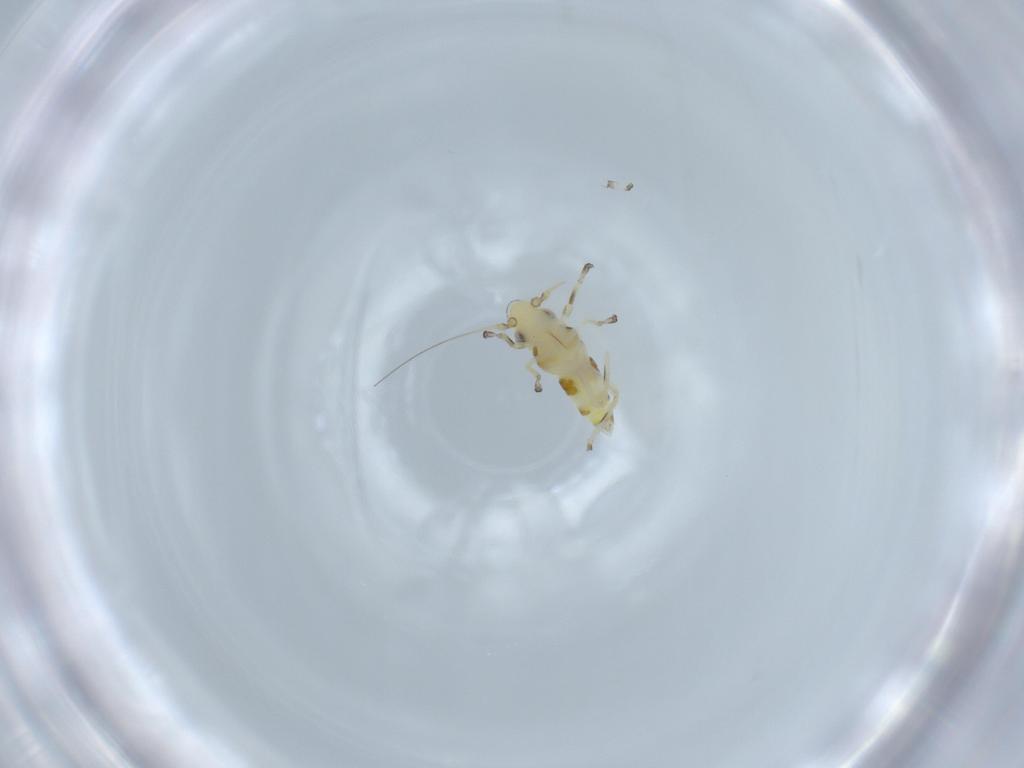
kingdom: Animalia
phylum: Arthropoda
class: Insecta
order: Hemiptera
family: Cicadellidae
